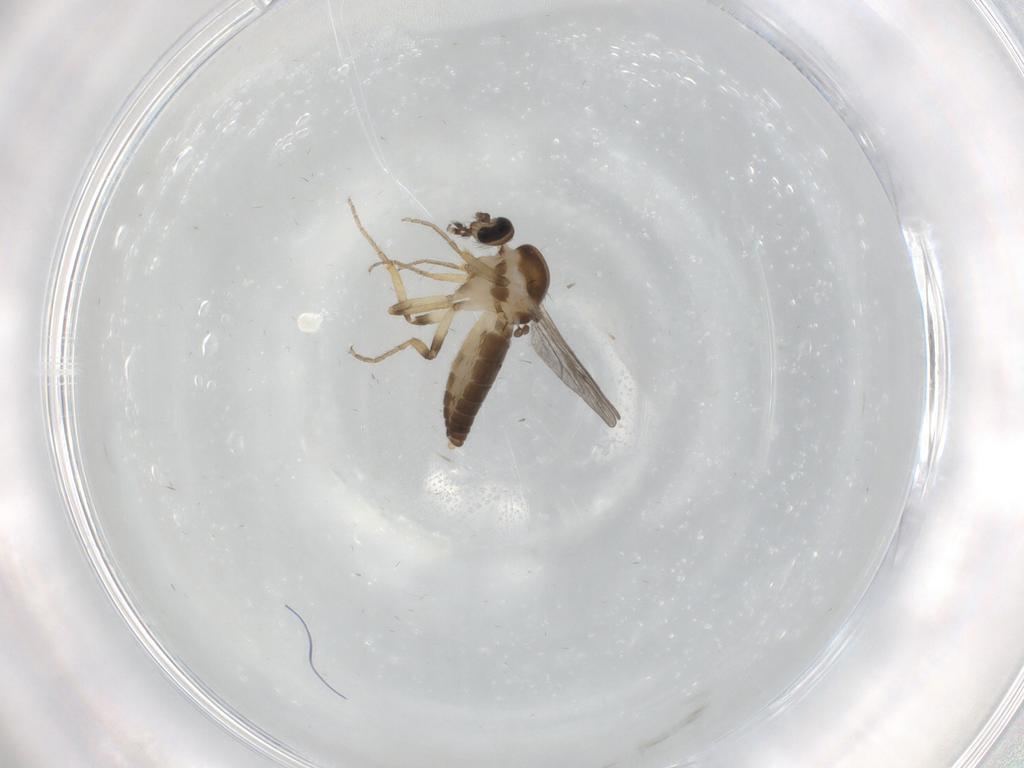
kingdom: Animalia
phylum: Arthropoda
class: Insecta
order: Diptera
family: Ceratopogonidae
